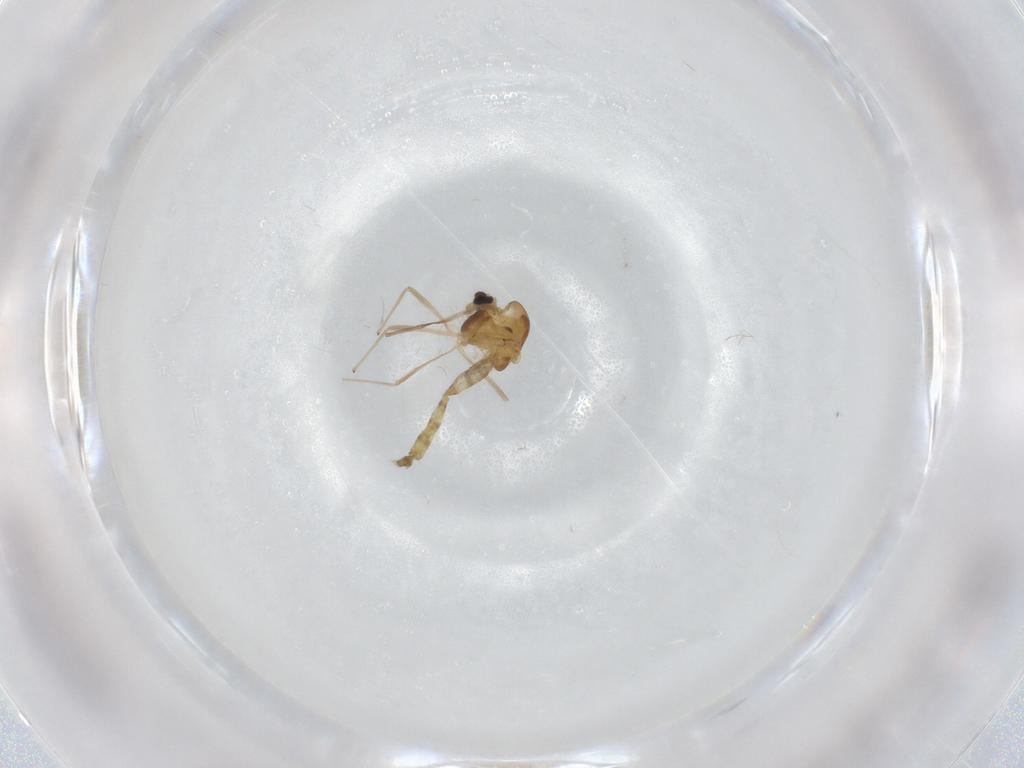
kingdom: Animalia
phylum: Arthropoda
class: Insecta
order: Diptera
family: Chironomidae
